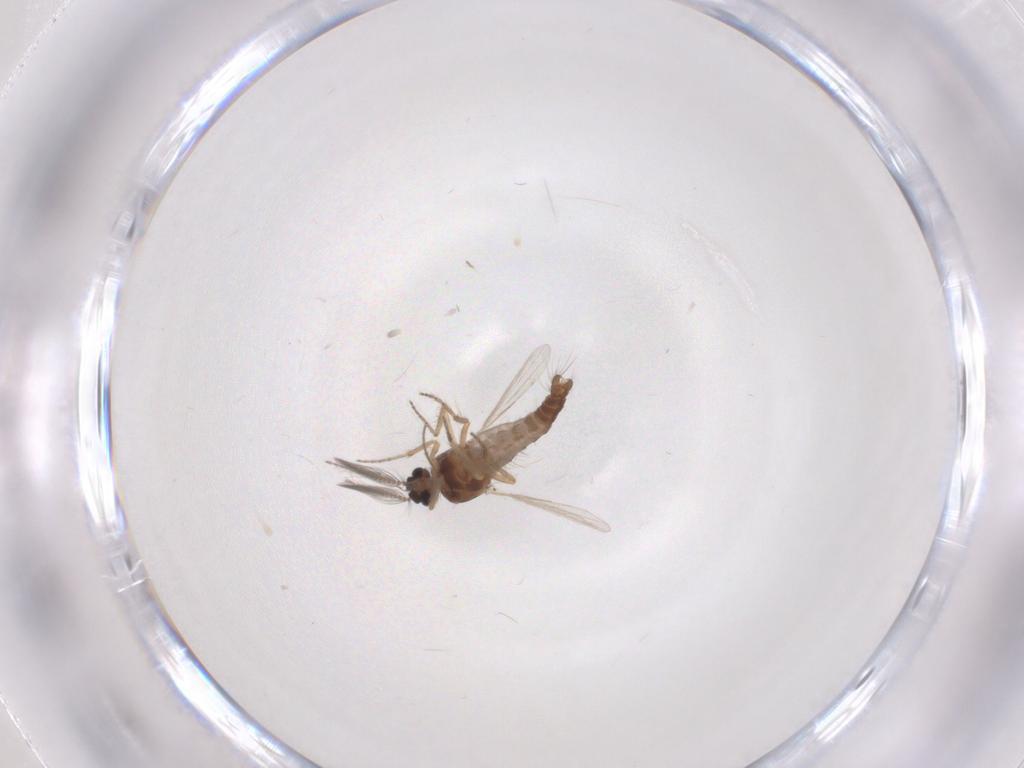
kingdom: Animalia
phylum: Arthropoda
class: Insecta
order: Diptera
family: Ceratopogonidae
